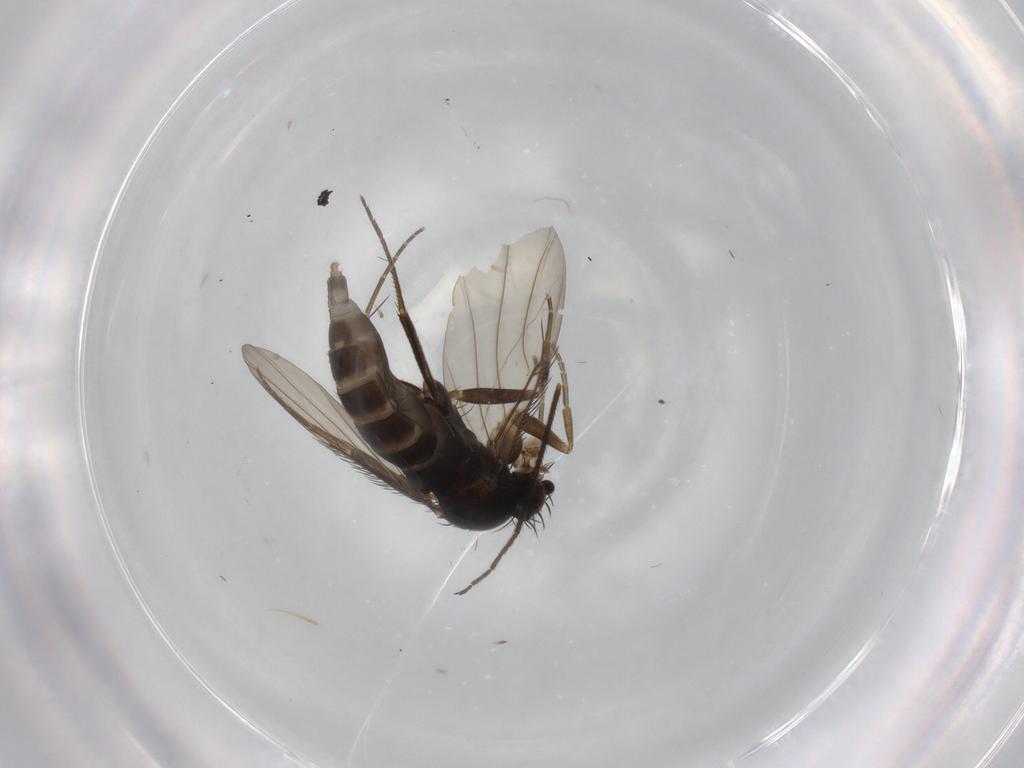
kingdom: Animalia
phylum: Arthropoda
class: Insecta
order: Diptera
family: Phoridae
